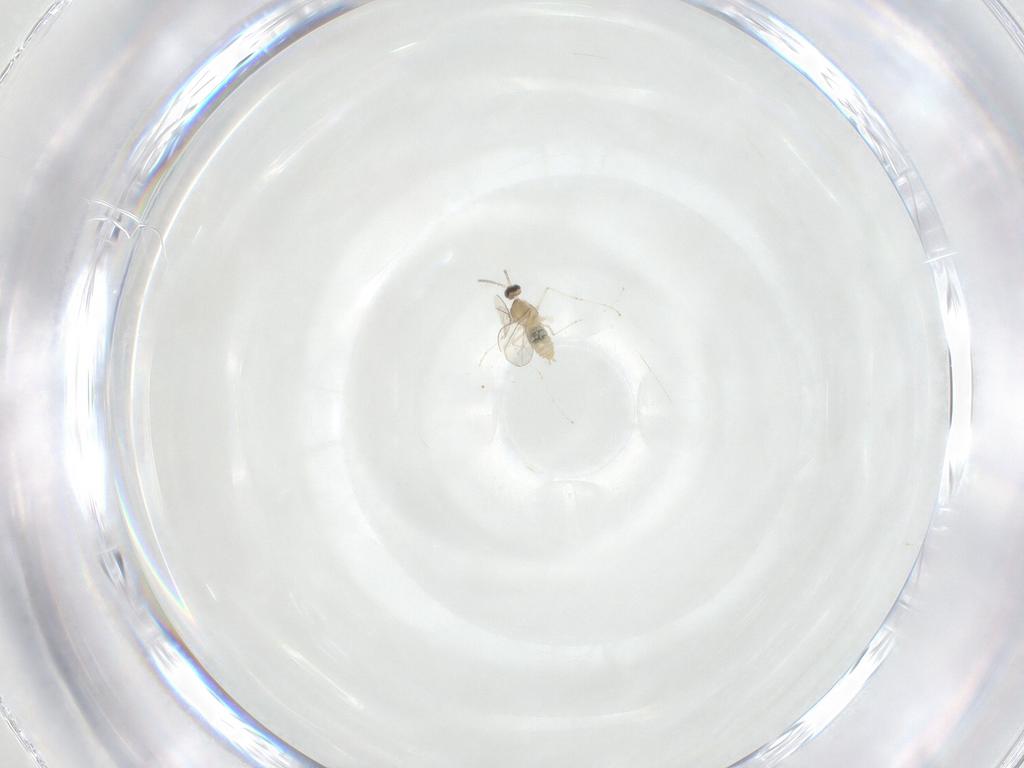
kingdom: Animalia
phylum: Arthropoda
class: Insecta
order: Diptera
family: Cecidomyiidae
